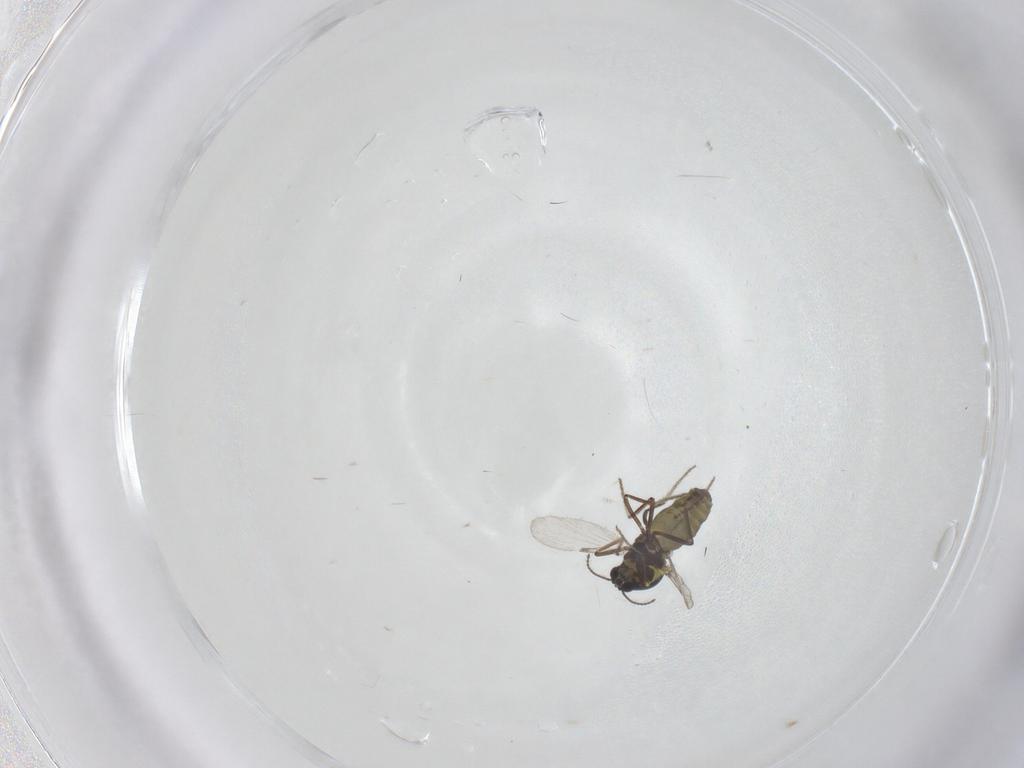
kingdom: Animalia
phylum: Arthropoda
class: Insecta
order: Diptera
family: Ceratopogonidae
